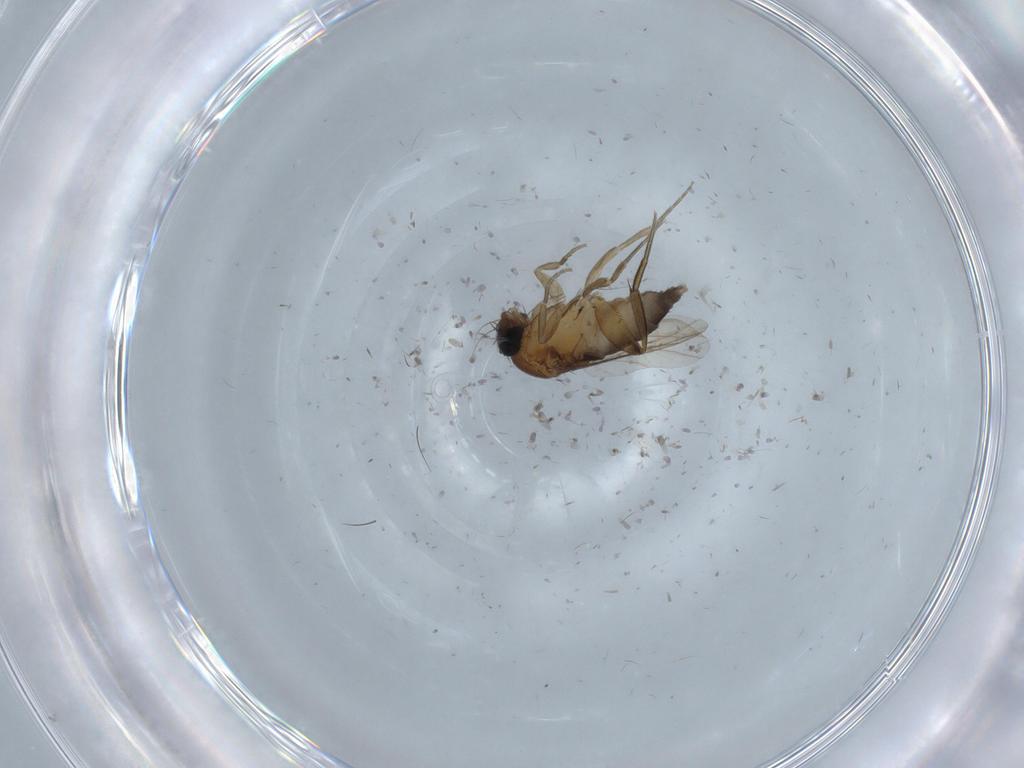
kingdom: Animalia
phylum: Arthropoda
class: Insecta
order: Diptera
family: Phoridae
